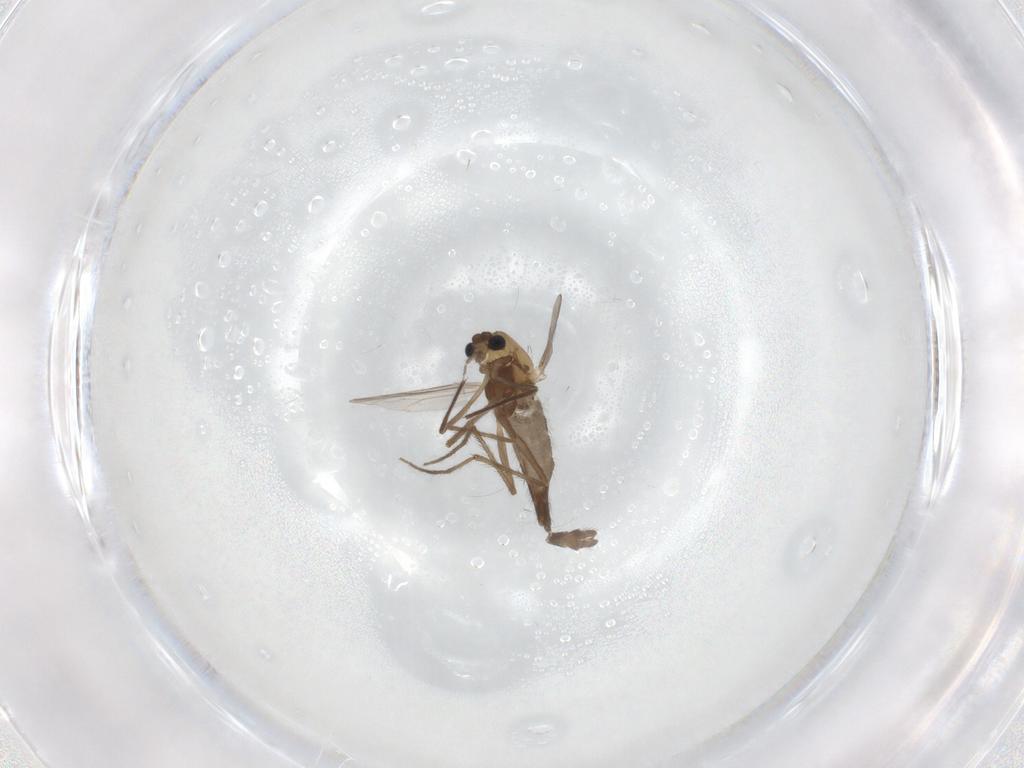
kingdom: Animalia
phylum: Arthropoda
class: Insecta
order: Diptera
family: Chironomidae
